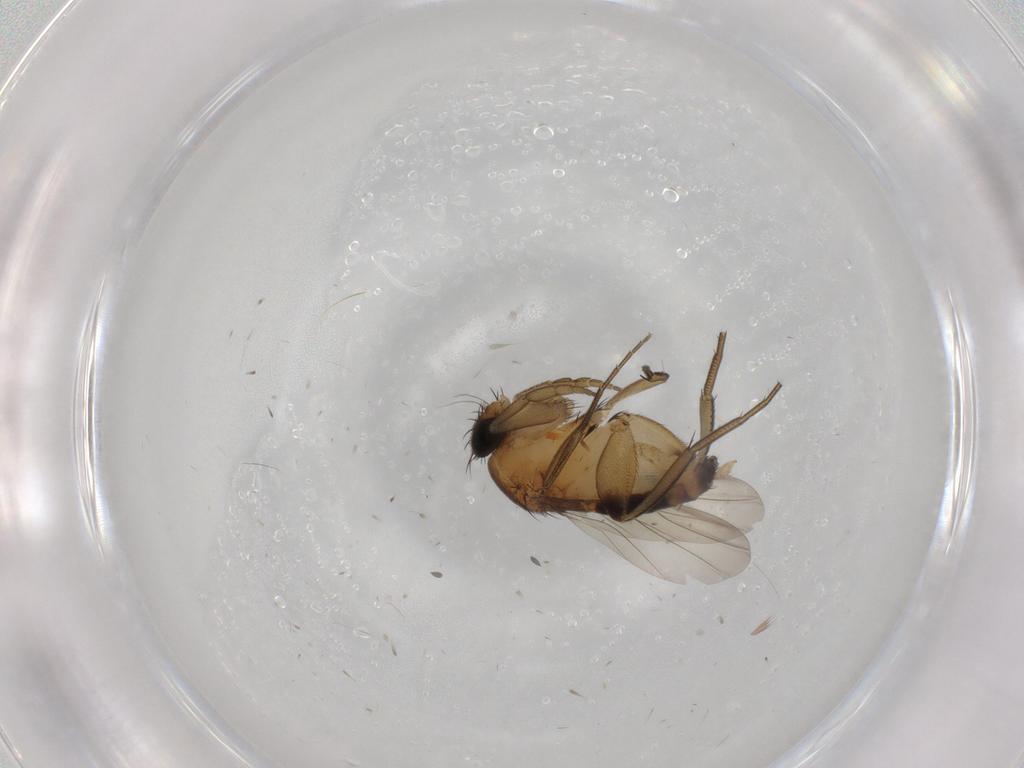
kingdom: Animalia
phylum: Arthropoda
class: Insecta
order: Diptera
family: Phoridae
